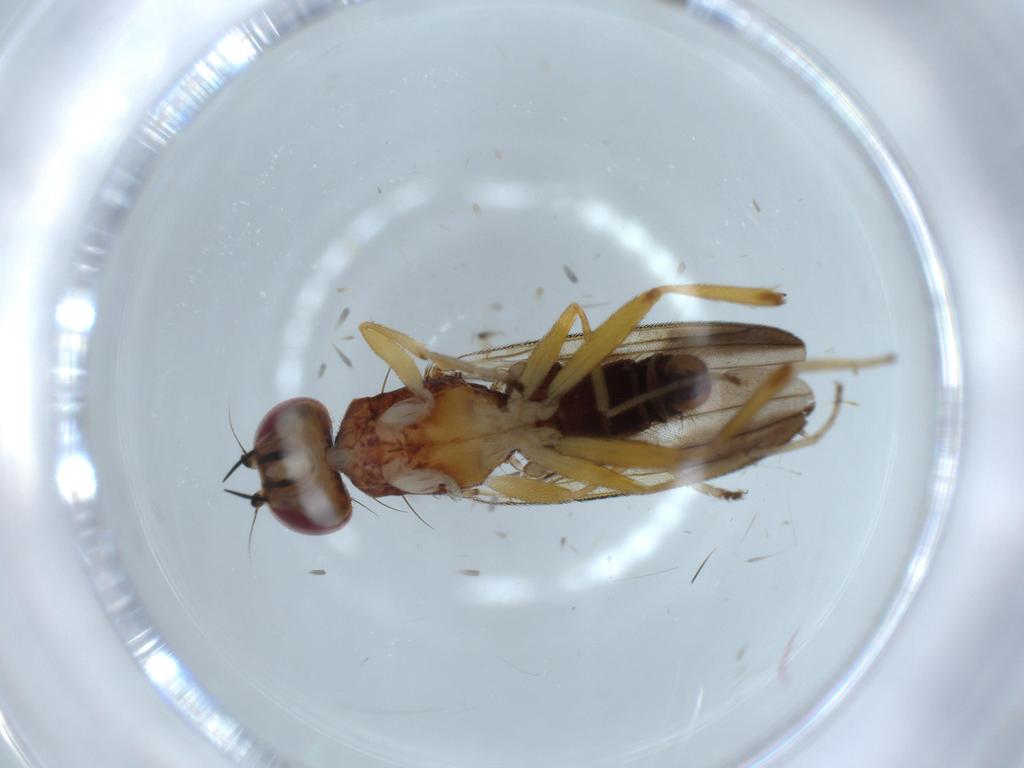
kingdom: Animalia
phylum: Arthropoda
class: Insecta
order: Diptera
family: Clusiidae
